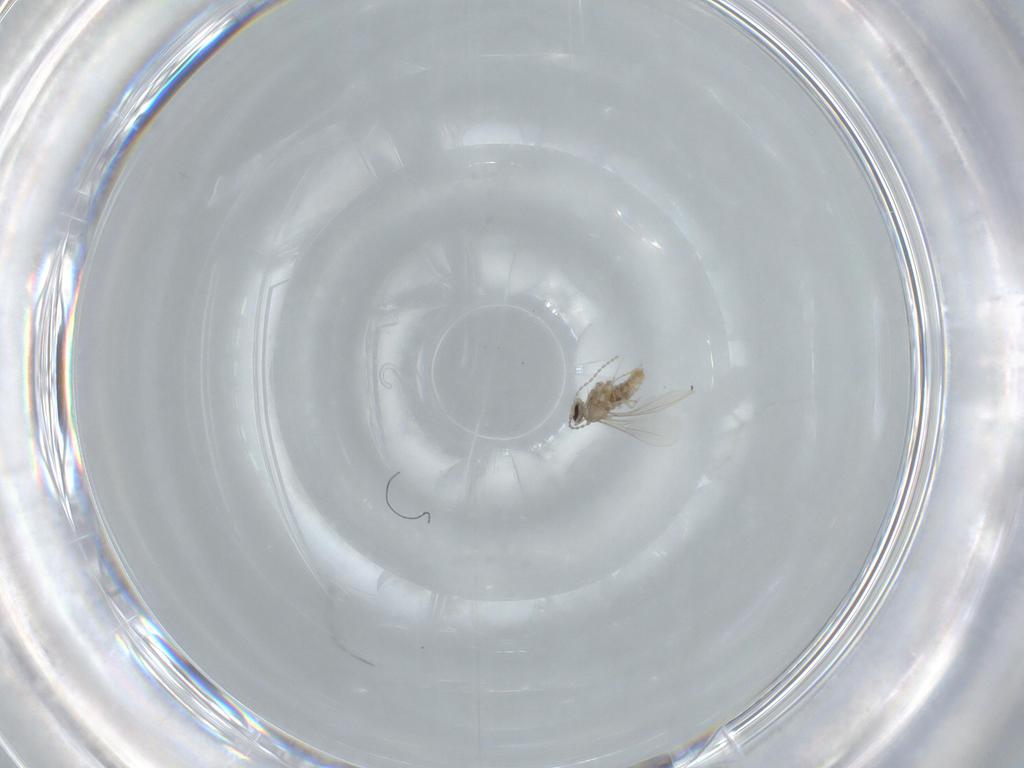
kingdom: Animalia
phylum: Arthropoda
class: Insecta
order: Diptera
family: Cecidomyiidae
